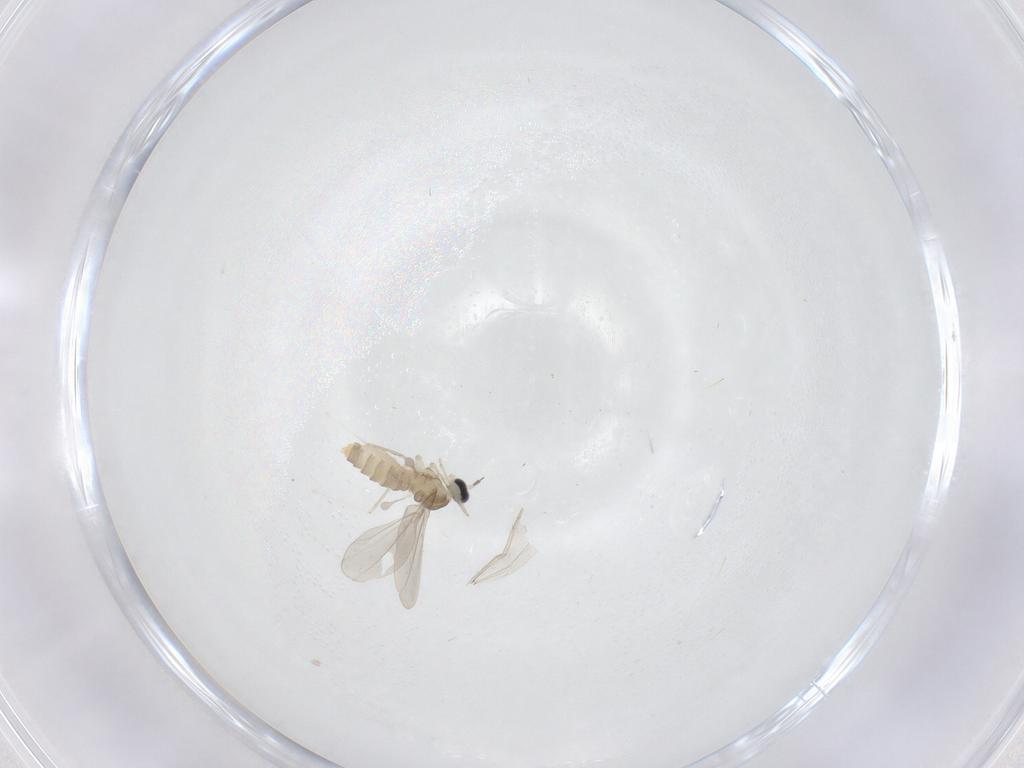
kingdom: Animalia
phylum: Arthropoda
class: Insecta
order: Diptera
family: Cecidomyiidae
